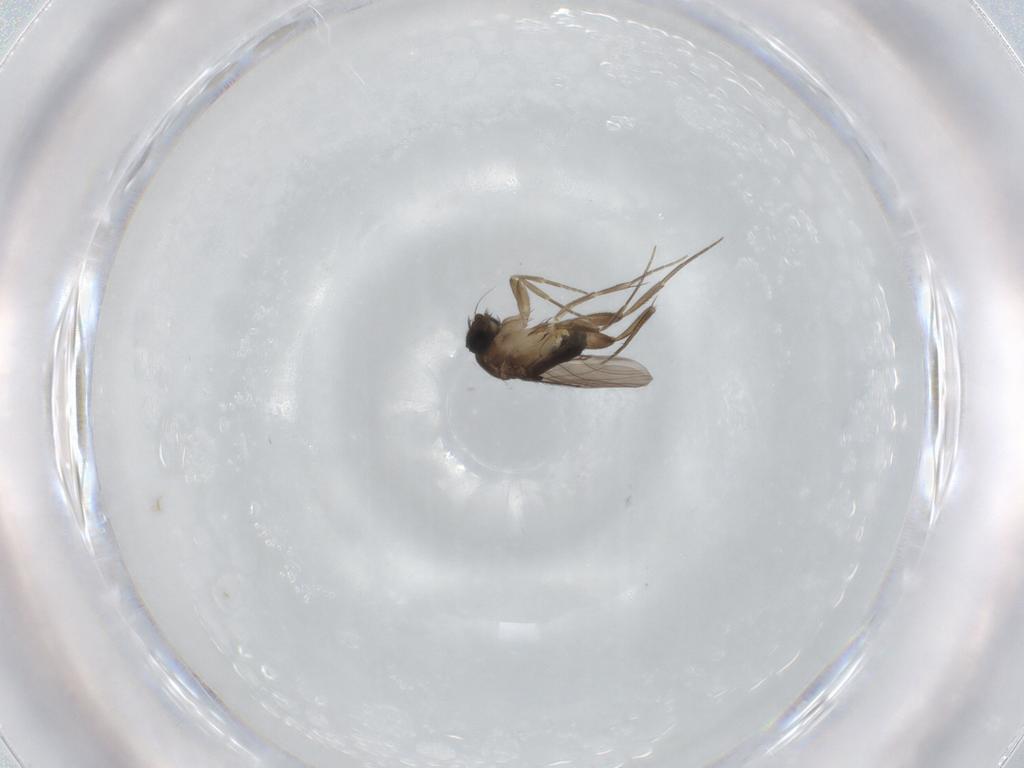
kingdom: Animalia
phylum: Arthropoda
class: Insecta
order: Diptera
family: Phoridae
